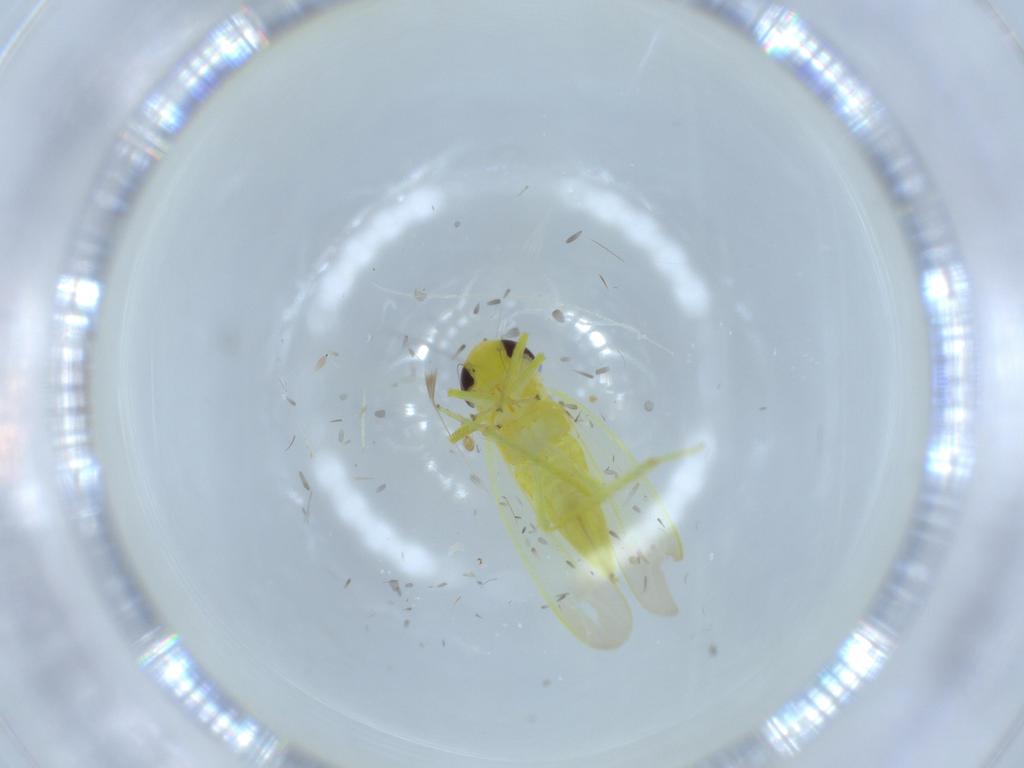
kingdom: Animalia
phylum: Arthropoda
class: Insecta
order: Hemiptera
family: Cicadellidae
